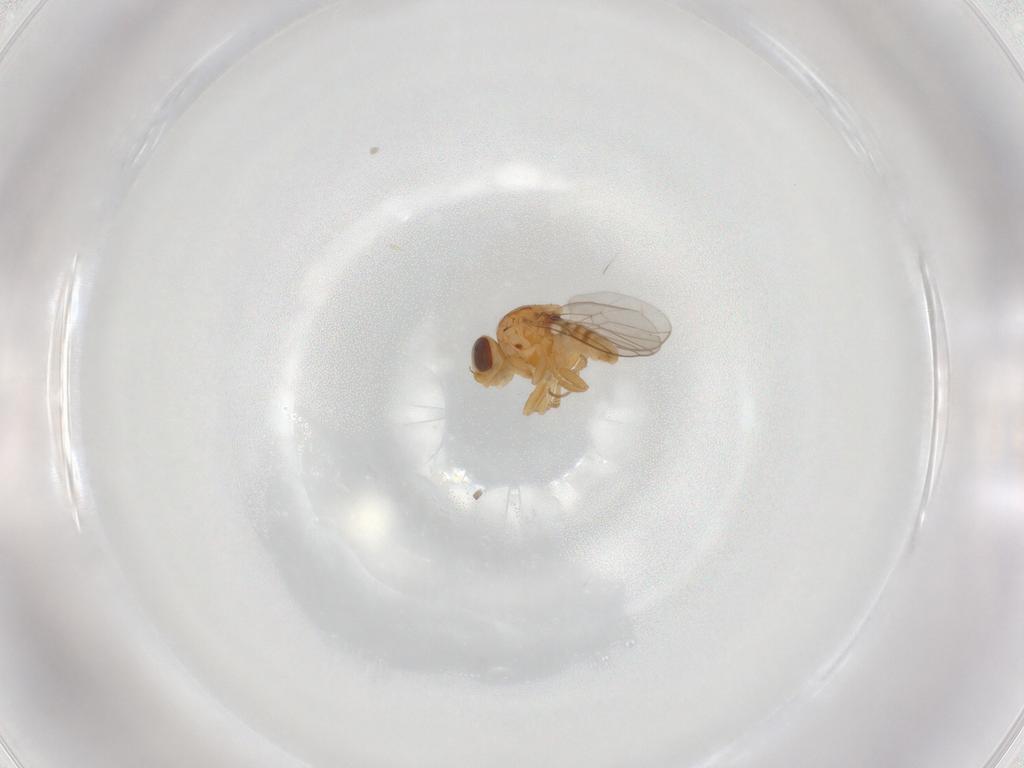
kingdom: Animalia
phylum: Arthropoda
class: Insecta
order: Diptera
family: Chloropidae
